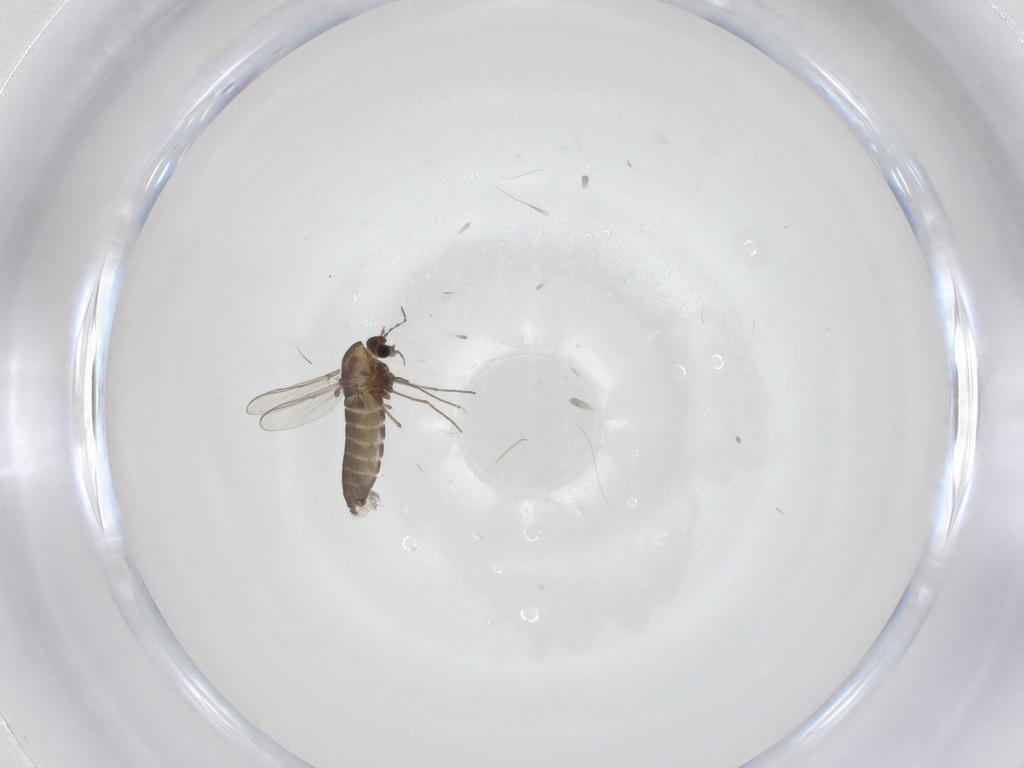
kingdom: Animalia
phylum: Arthropoda
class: Insecta
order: Diptera
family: Chironomidae
